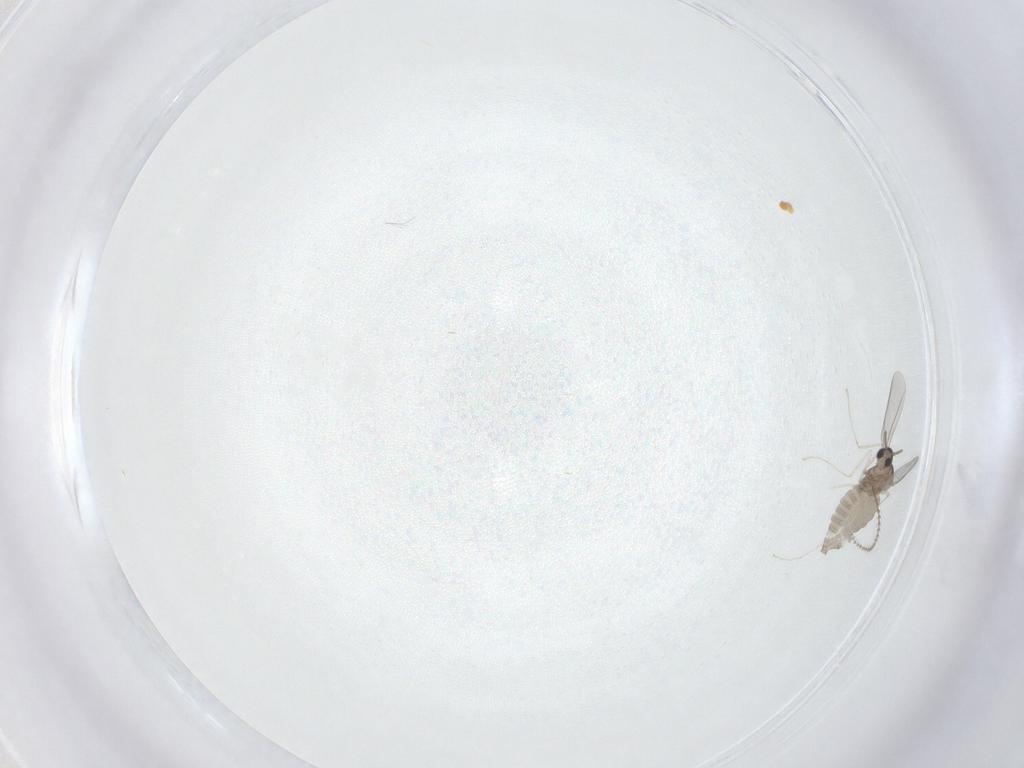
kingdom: Animalia
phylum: Arthropoda
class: Insecta
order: Diptera
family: Cecidomyiidae
